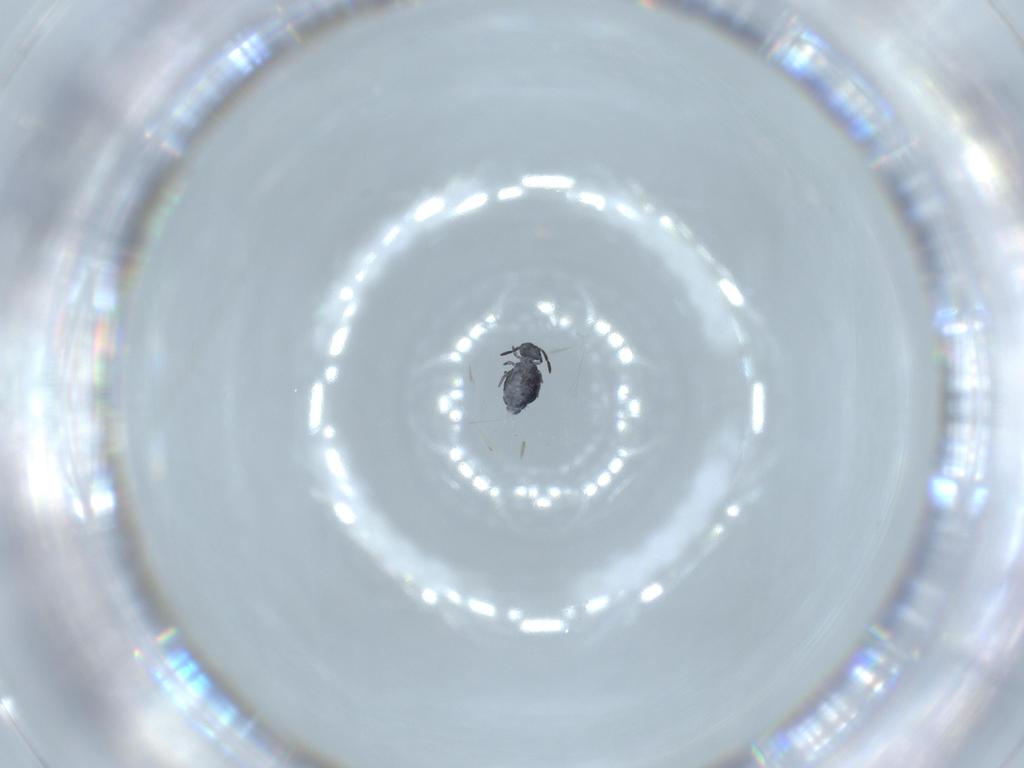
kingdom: Animalia
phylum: Arthropoda
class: Collembola
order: Symphypleona
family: Katiannidae
